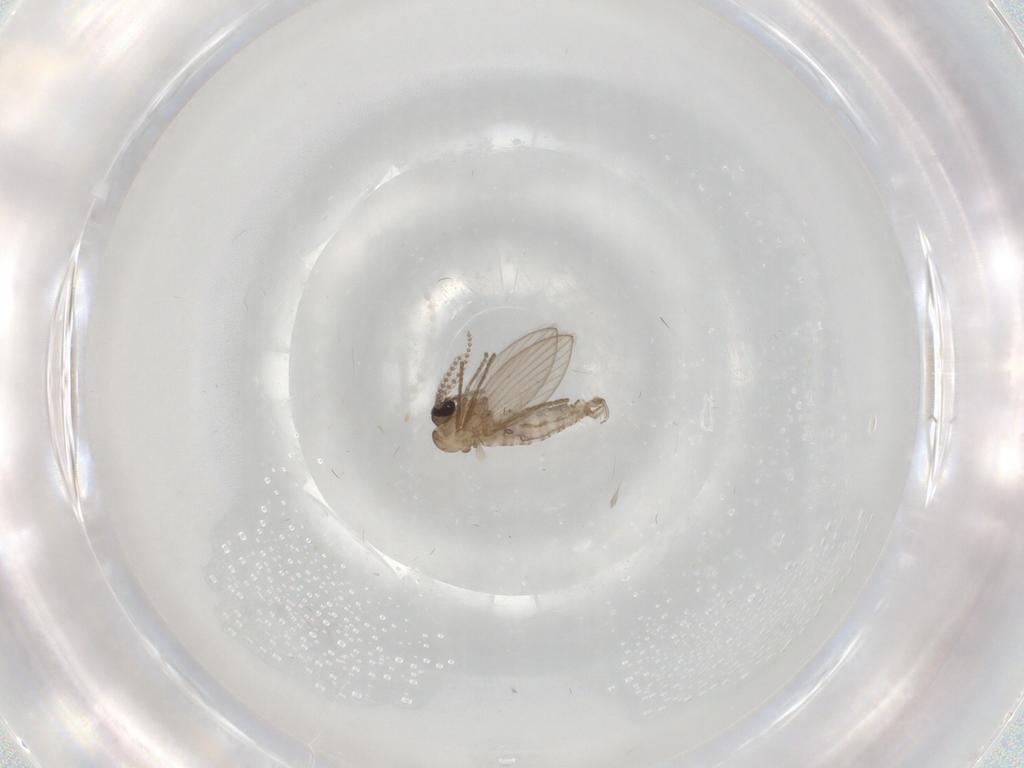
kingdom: Animalia
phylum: Arthropoda
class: Insecta
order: Diptera
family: Psychodidae
